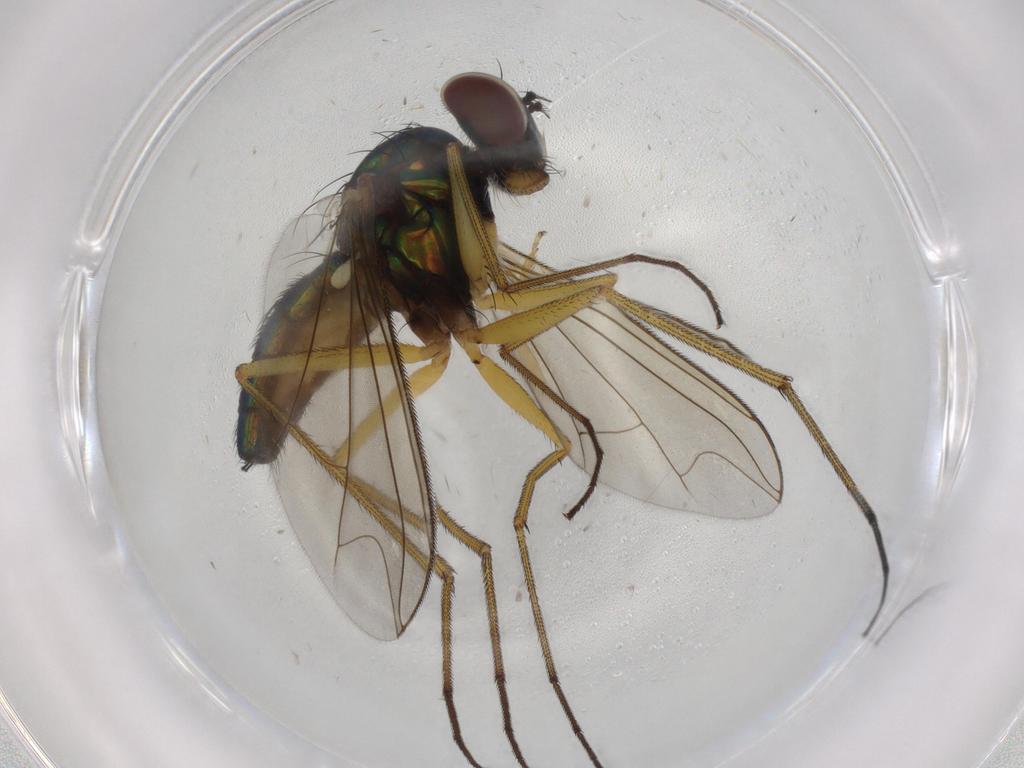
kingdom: Animalia
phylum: Arthropoda
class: Insecta
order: Diptera
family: Dolichopodidae
